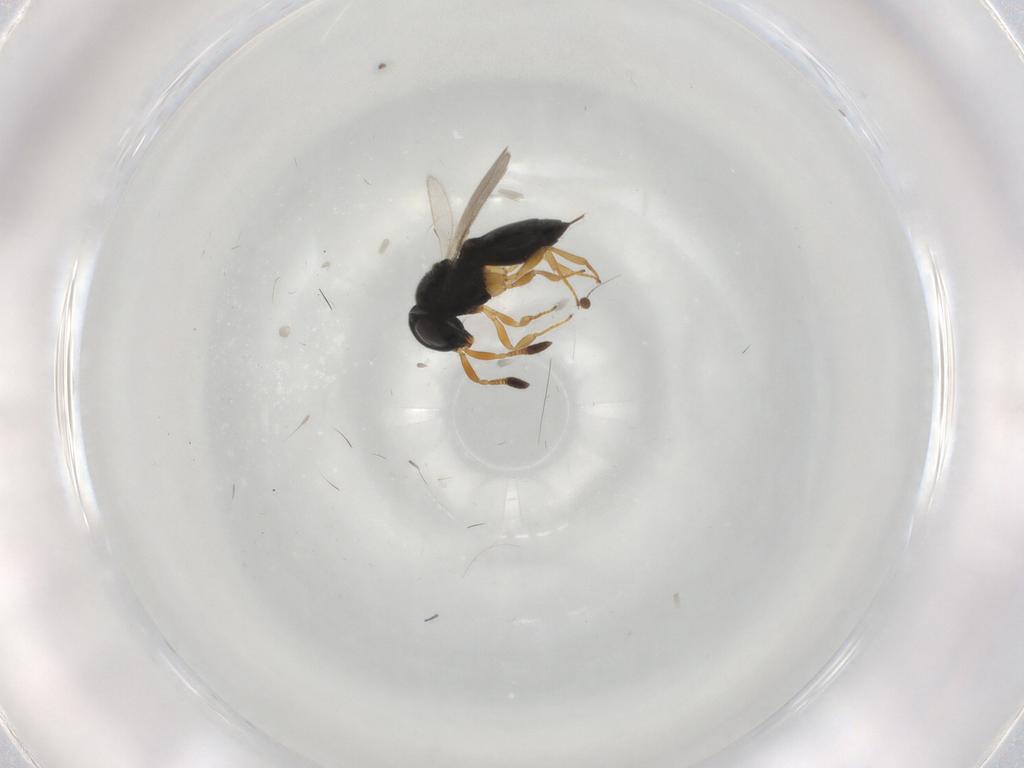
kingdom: Animalia
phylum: Arthropoda
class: Insecta
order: Hymenoptera
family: Scelionidae
